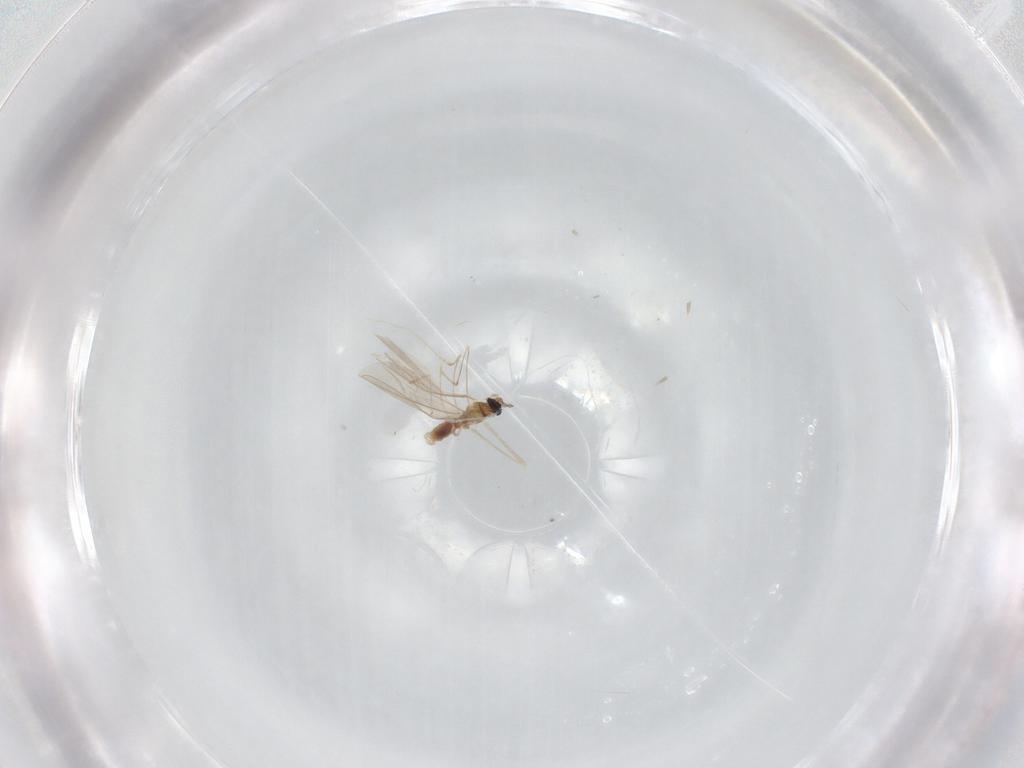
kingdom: Animalia
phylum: Arthropoda
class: Insecta
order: Diptera
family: Cecidomyiidae
